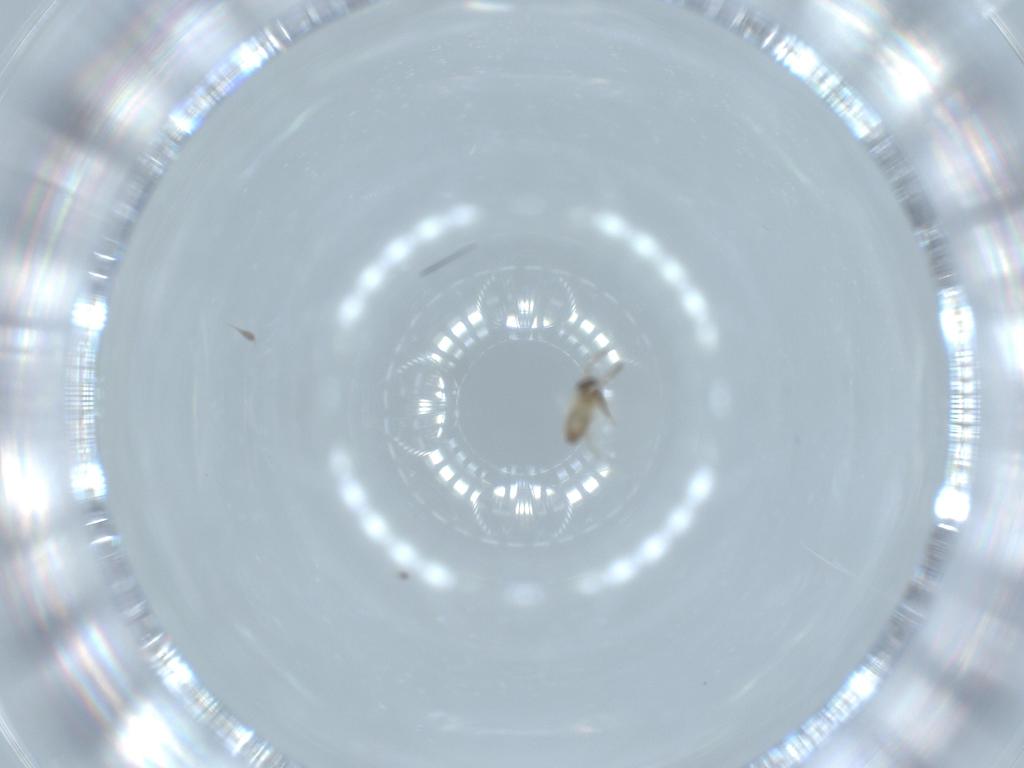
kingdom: Animalia
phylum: Arthropoda
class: Insecta
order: Diptera
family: Cecidomyiidae
